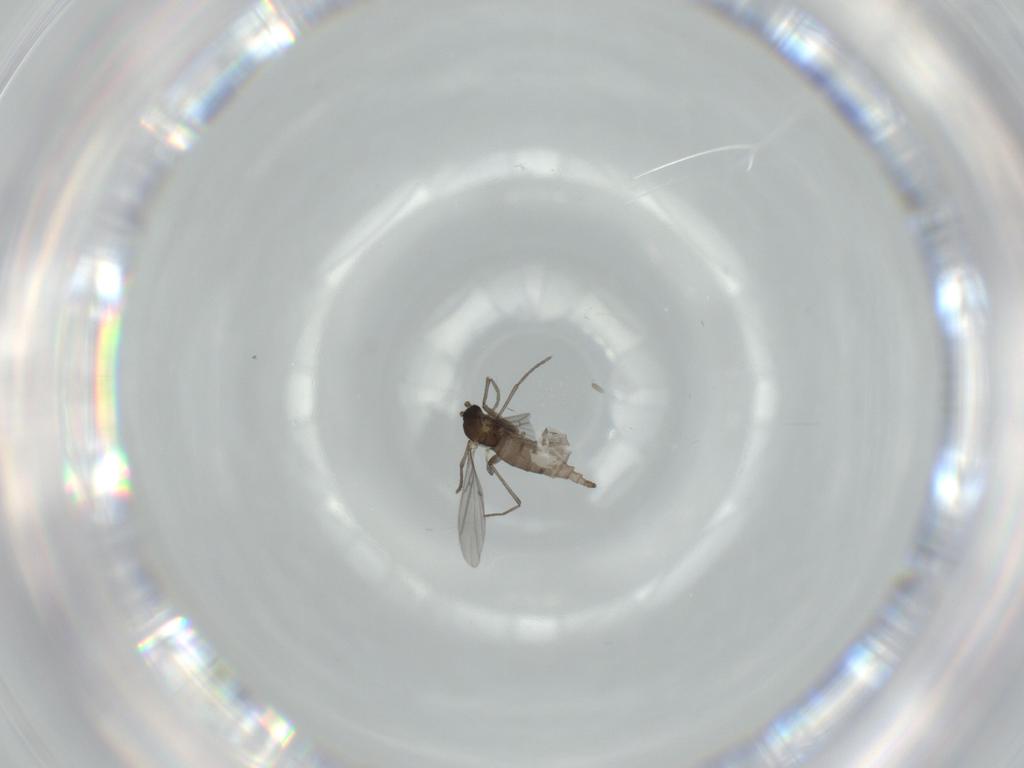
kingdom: Animalia
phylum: Arthropoda
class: Insecta
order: Diptera
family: Sciaridae
